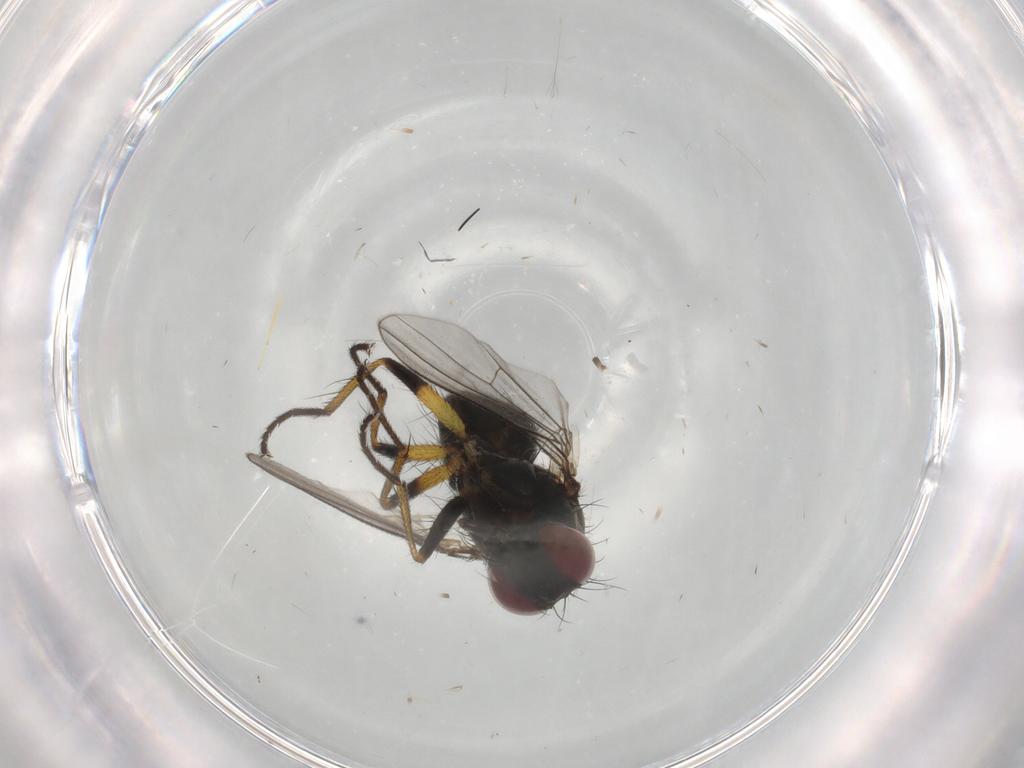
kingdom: Animalia
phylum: Arthropoda
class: Insecta
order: Diptera
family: Muscidae
